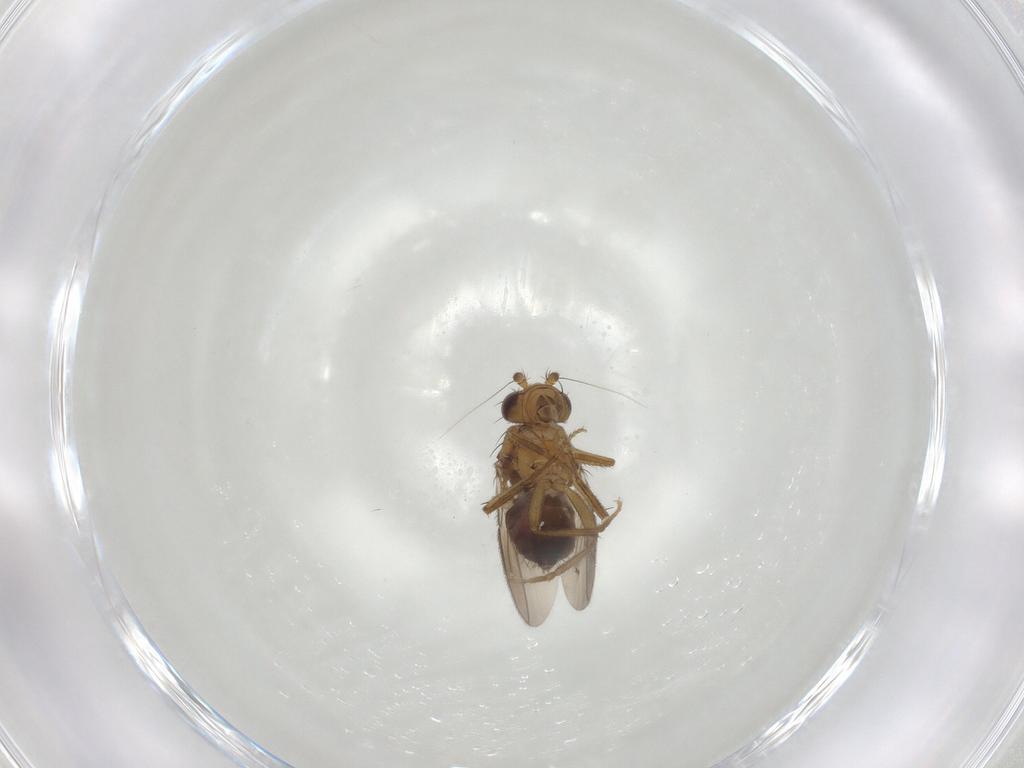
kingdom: Animalia
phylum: Arthropoda
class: Insecta
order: Diptera
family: Sphaeroceridae
